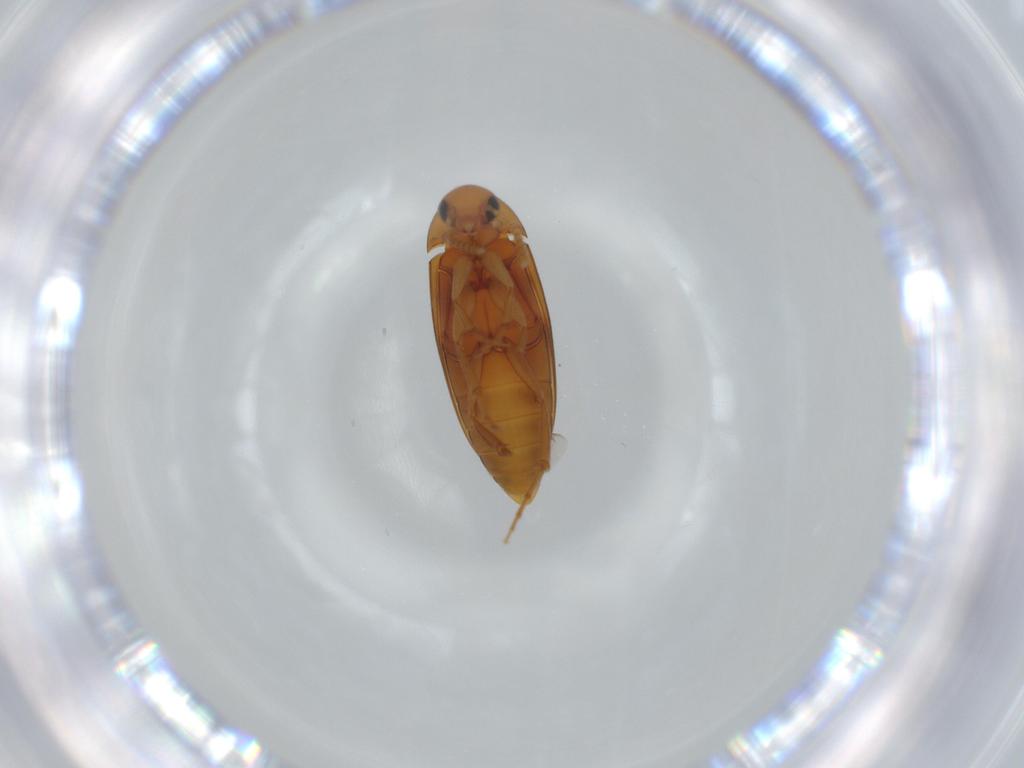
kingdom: Animalia
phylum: Arthropoda
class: Insecta
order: Coleoptera
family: Scraptiidae
